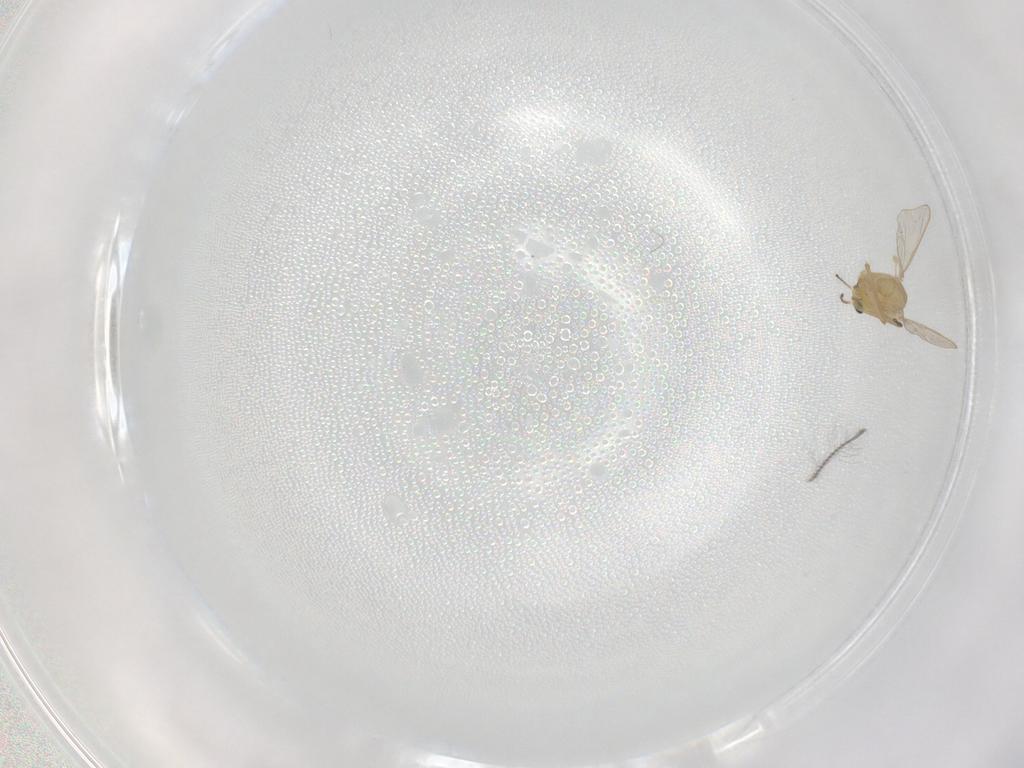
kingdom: Animalia
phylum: Arthropoda
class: Insecta
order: Diptera
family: Chironomidae
